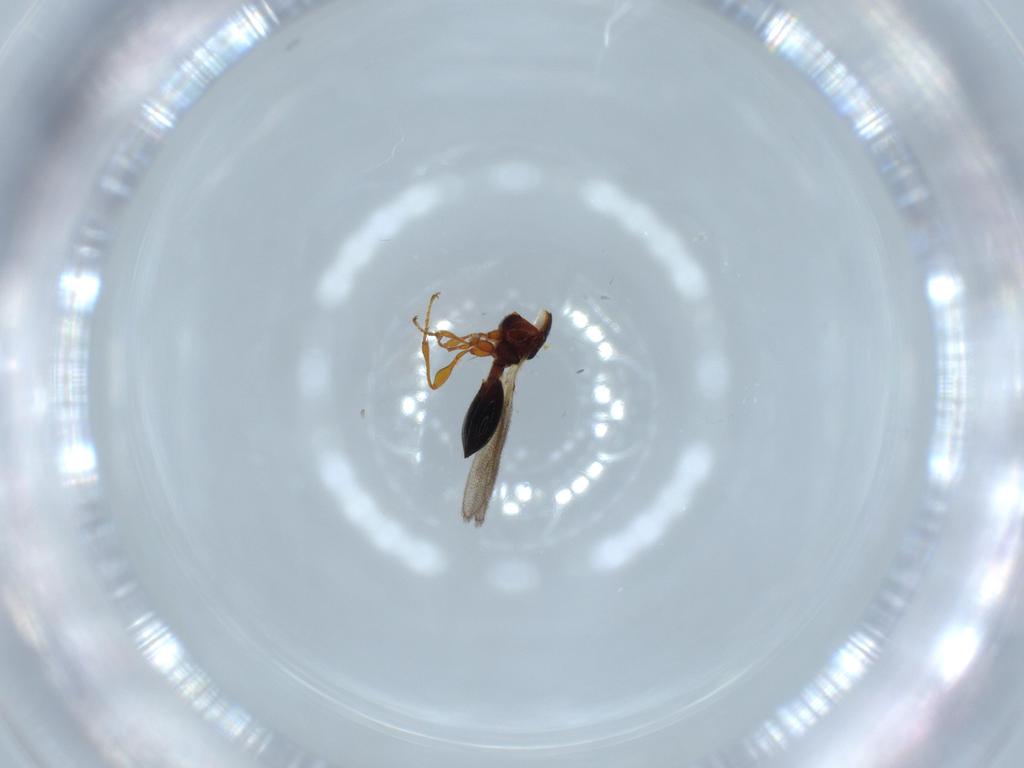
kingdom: Animalia
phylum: Arthropoda
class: Insecta
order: Hymenoptera
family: Diapriidae
